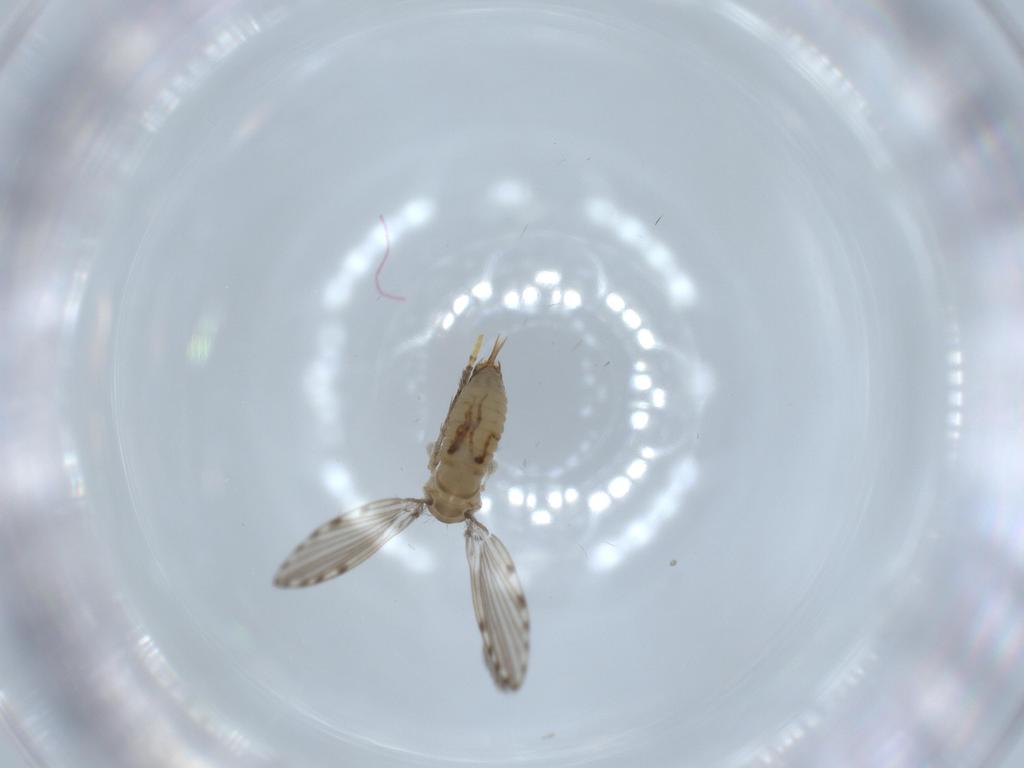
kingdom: Animalia
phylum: Arthropoda
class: Insecta
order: Diptera
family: Psychodidae
